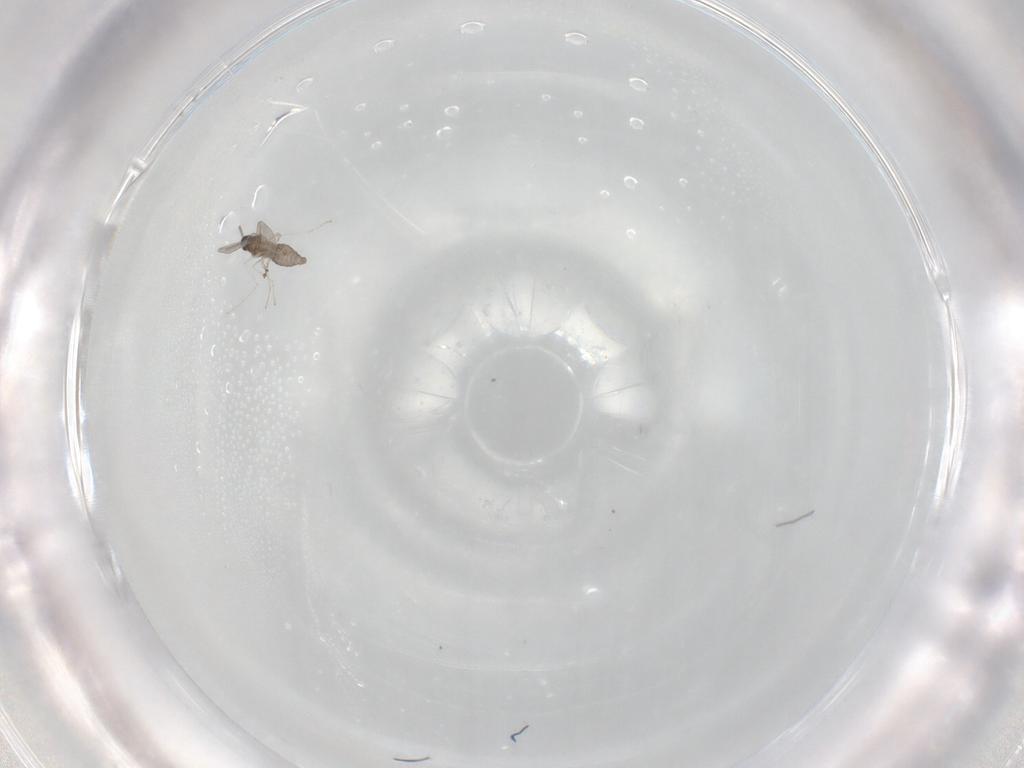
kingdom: Animalia
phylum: Arthropoda
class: Insecta
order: Diptera
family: Cecidomyiidae
